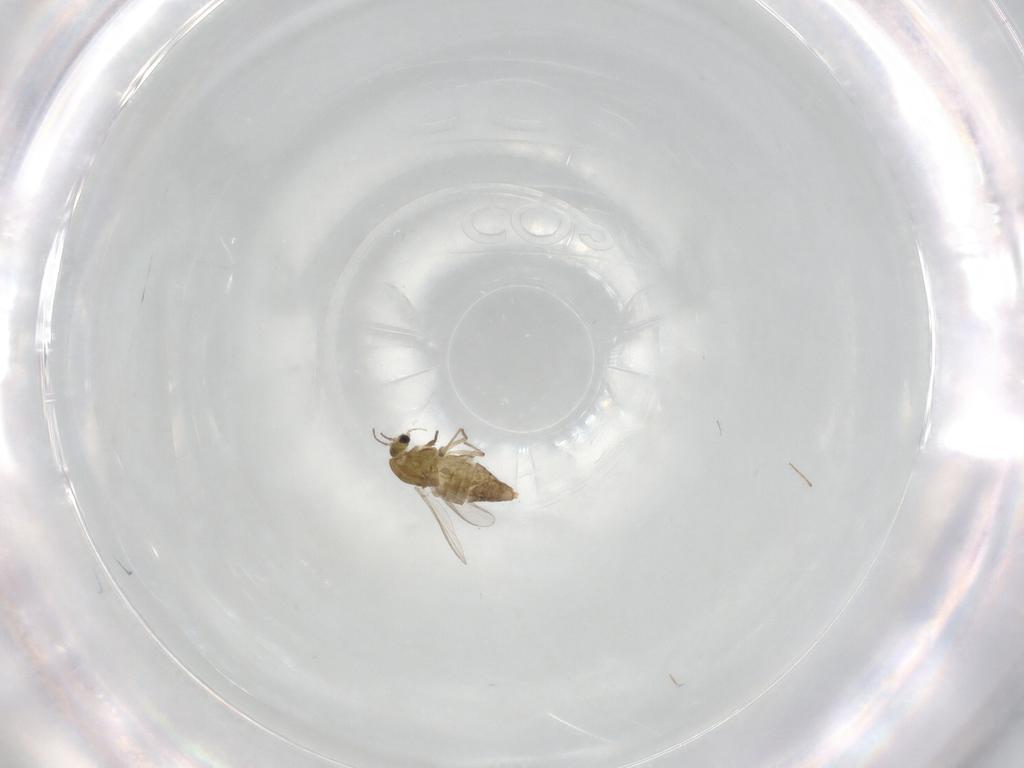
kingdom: Animalia
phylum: Arthropoda
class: Insecta
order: Diptera
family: Chironomidae
